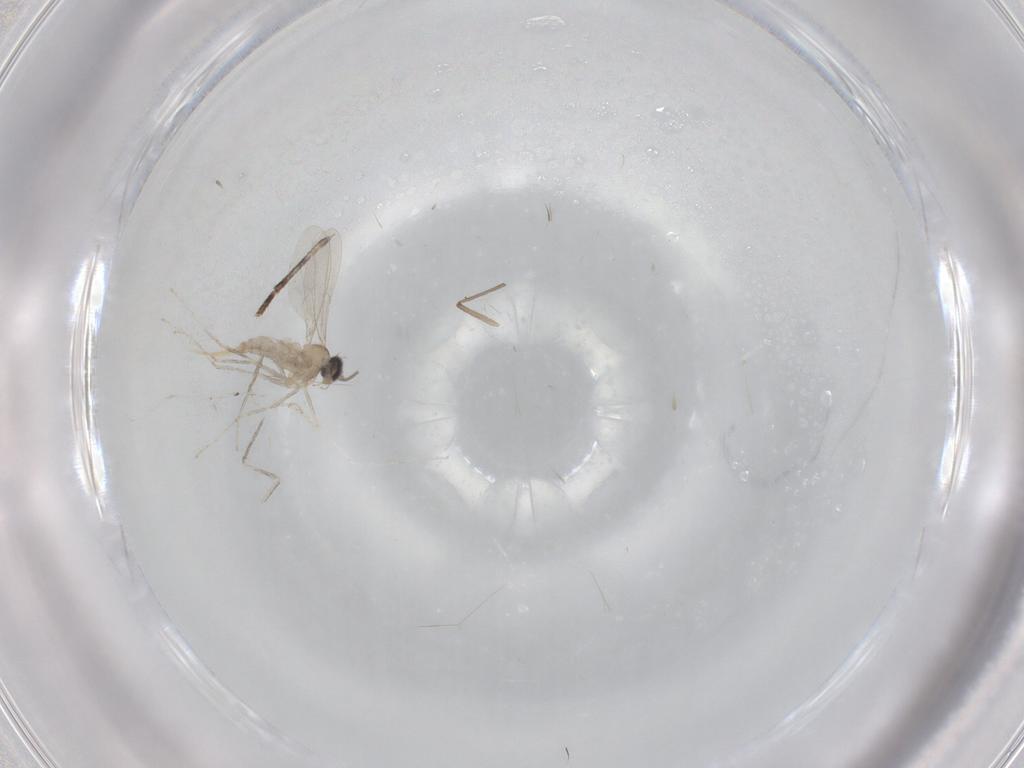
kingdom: Animalia
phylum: Arthropoda
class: Insecta
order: Diptera
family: Cecidomyiidae
